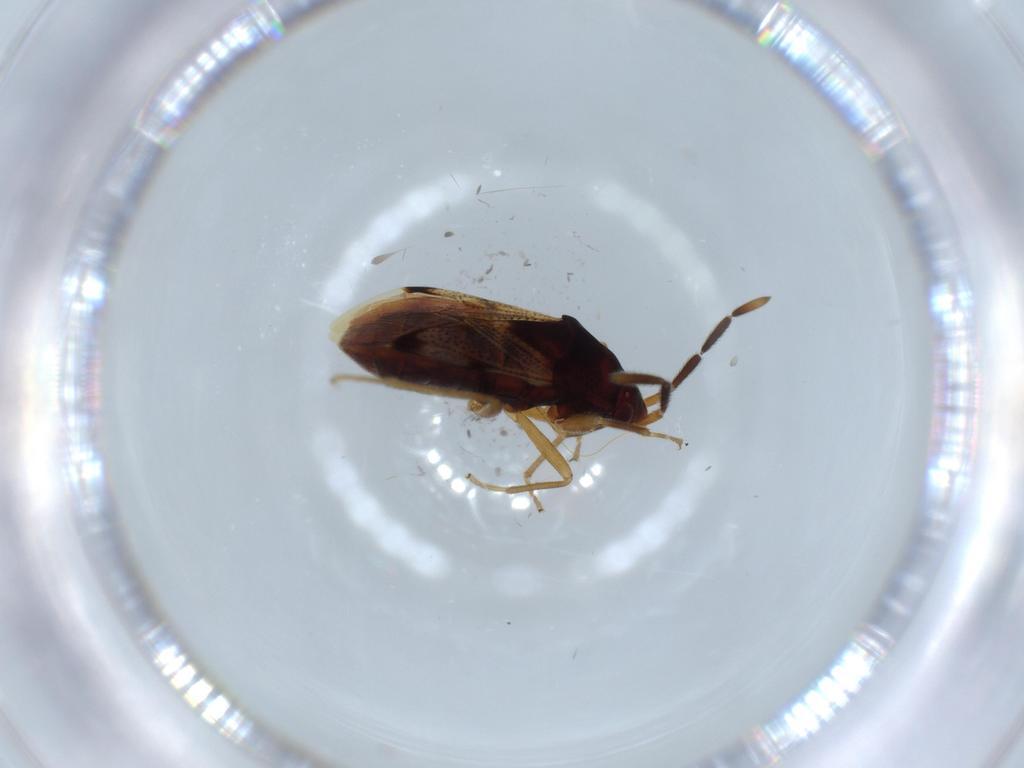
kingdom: Animalia
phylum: Arthropoda
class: Insecta
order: Hemiptera
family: Rhyparochromidae
